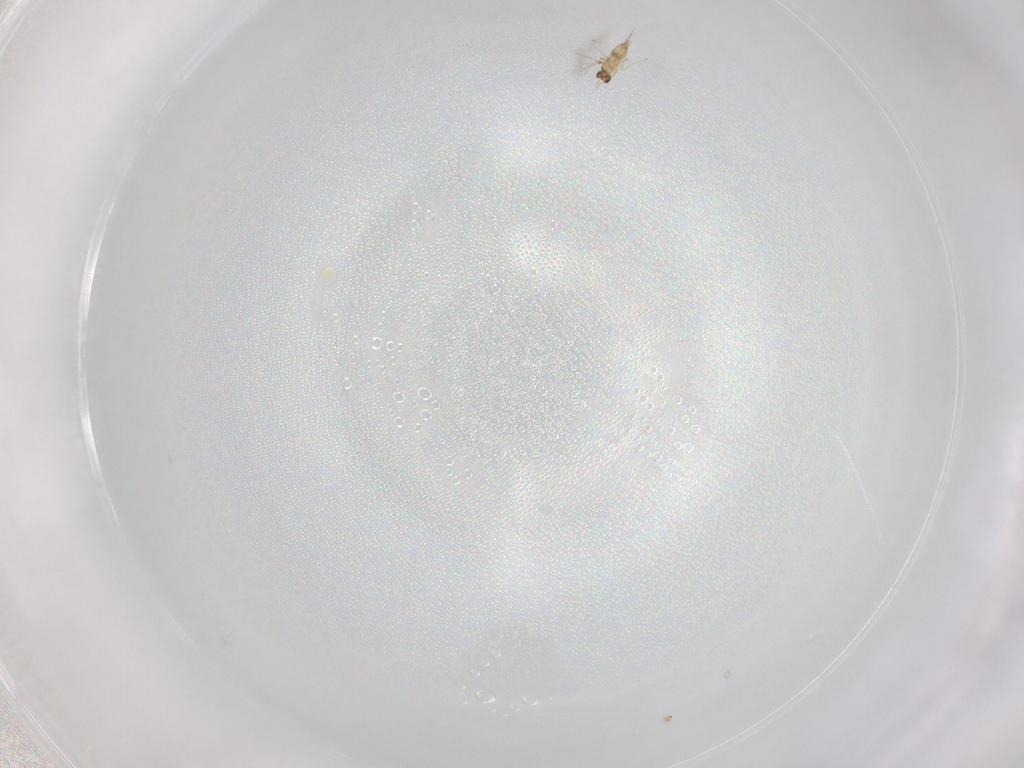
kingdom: Animalia
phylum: Arthropoda
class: Insecta
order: Hymenoptera
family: Mymaridae
